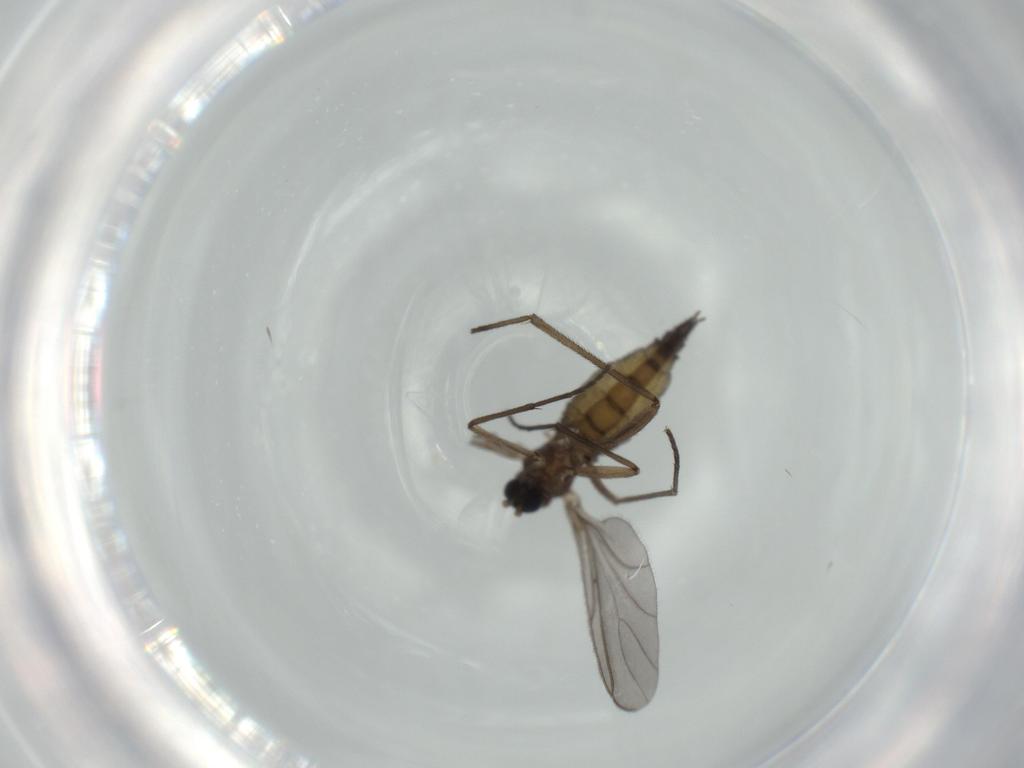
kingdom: Animalia
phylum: Arthropoda
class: Insecta
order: Diptera
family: Sciaridae
